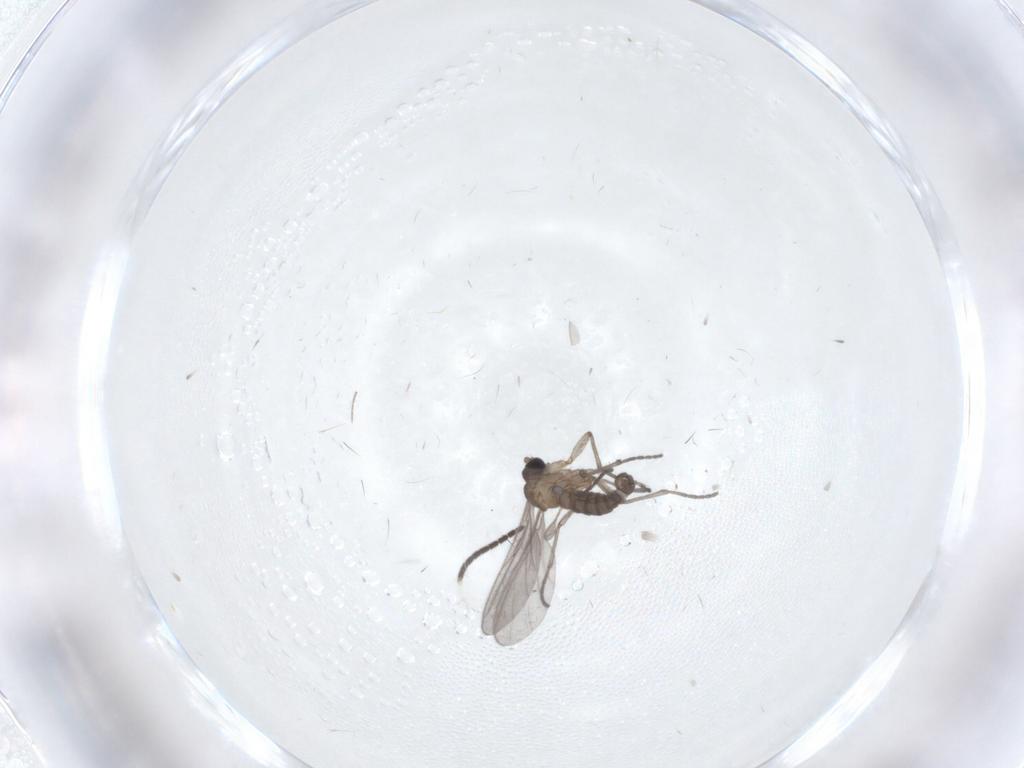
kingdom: Animalia
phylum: Arthropoda
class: Insecta
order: Diptera
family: Sciaridae
